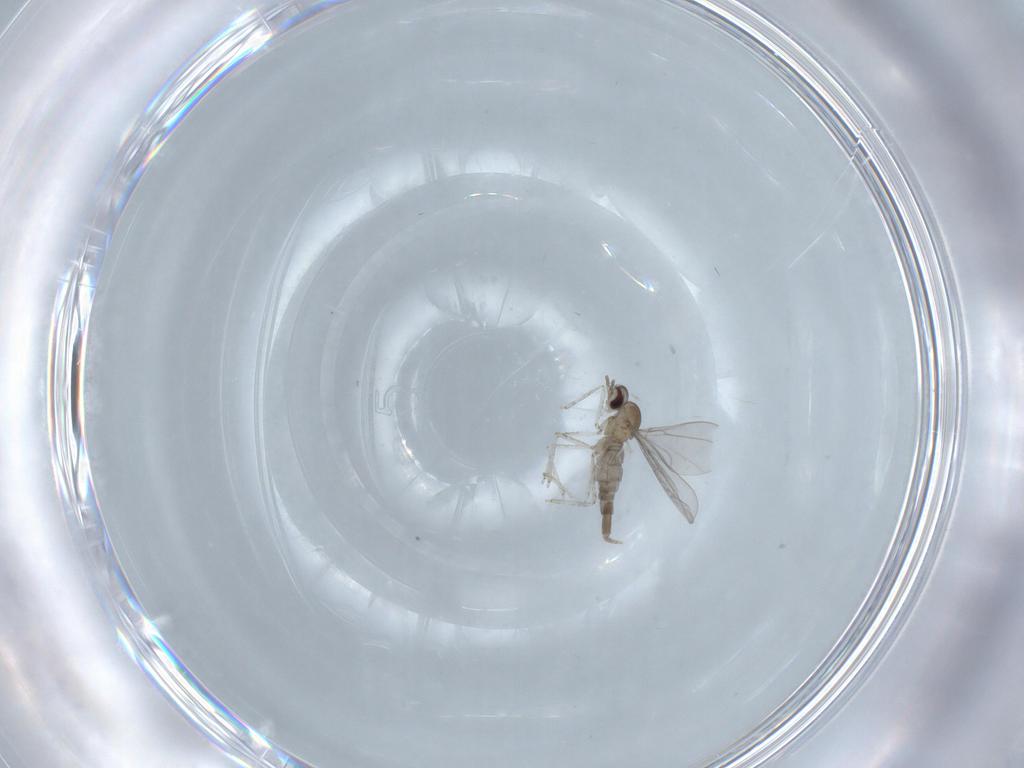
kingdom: Animalia
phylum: Arthropoda
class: Insecta
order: Diptera
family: Cecidomyiidae
